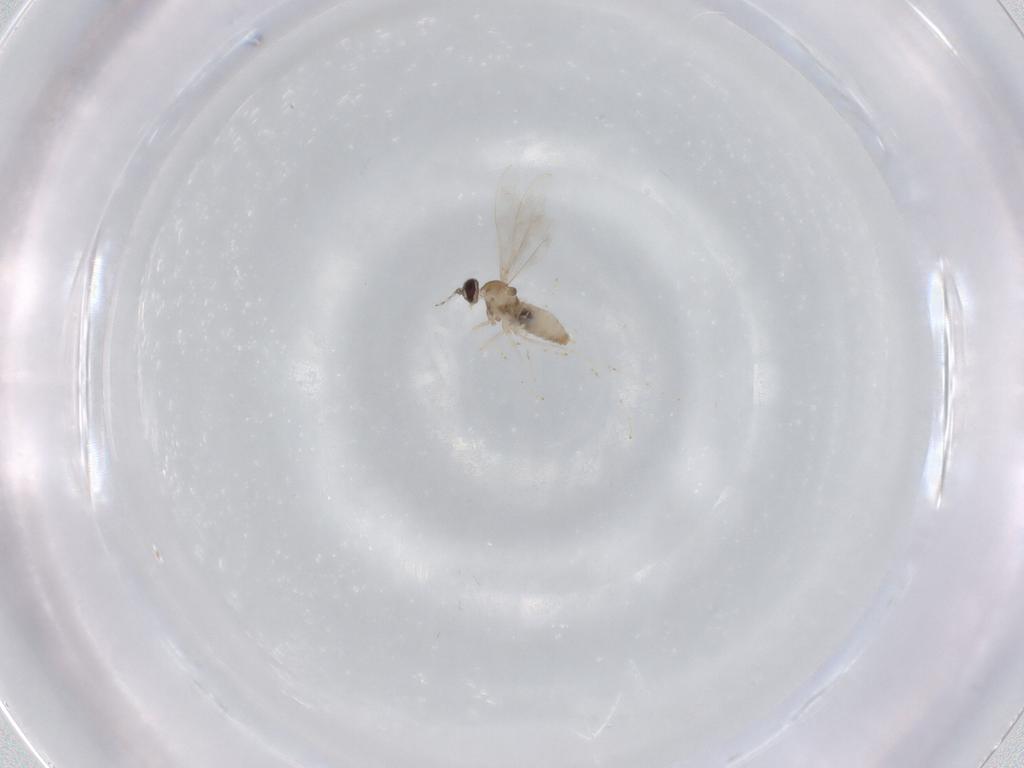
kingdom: Animalia
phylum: Arthropoda
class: Insecta
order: Diptera
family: Cecidomyiidae
